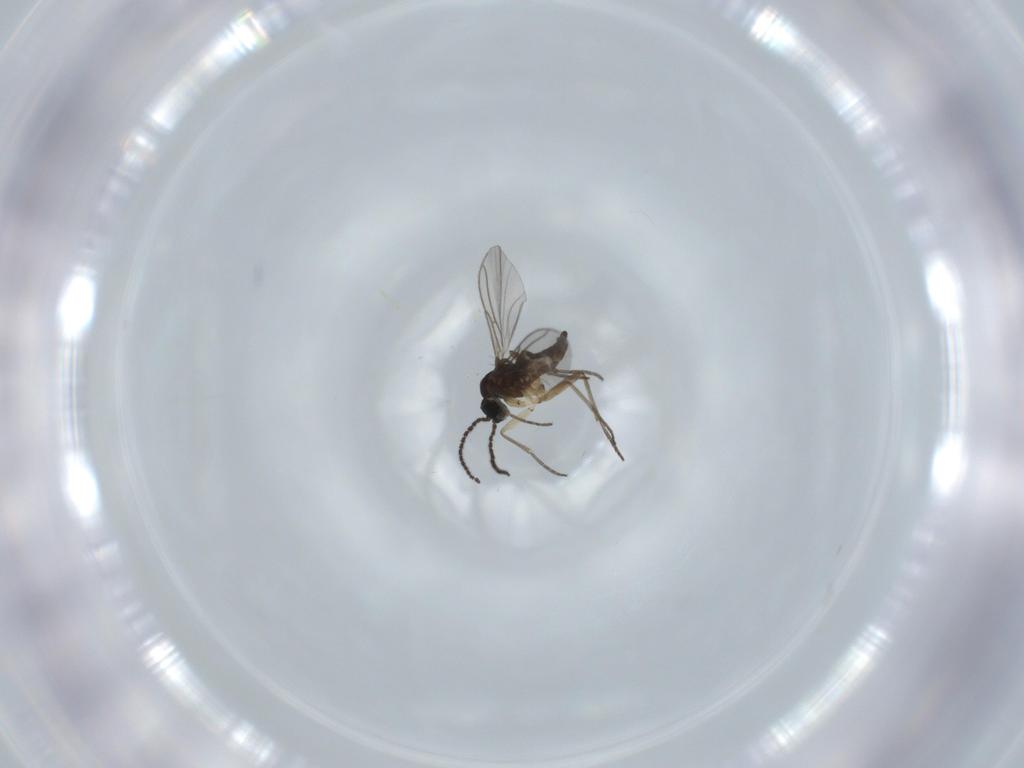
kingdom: Animalia
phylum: Arthropoda
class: Insecta
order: Diptera
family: Sciaridae
